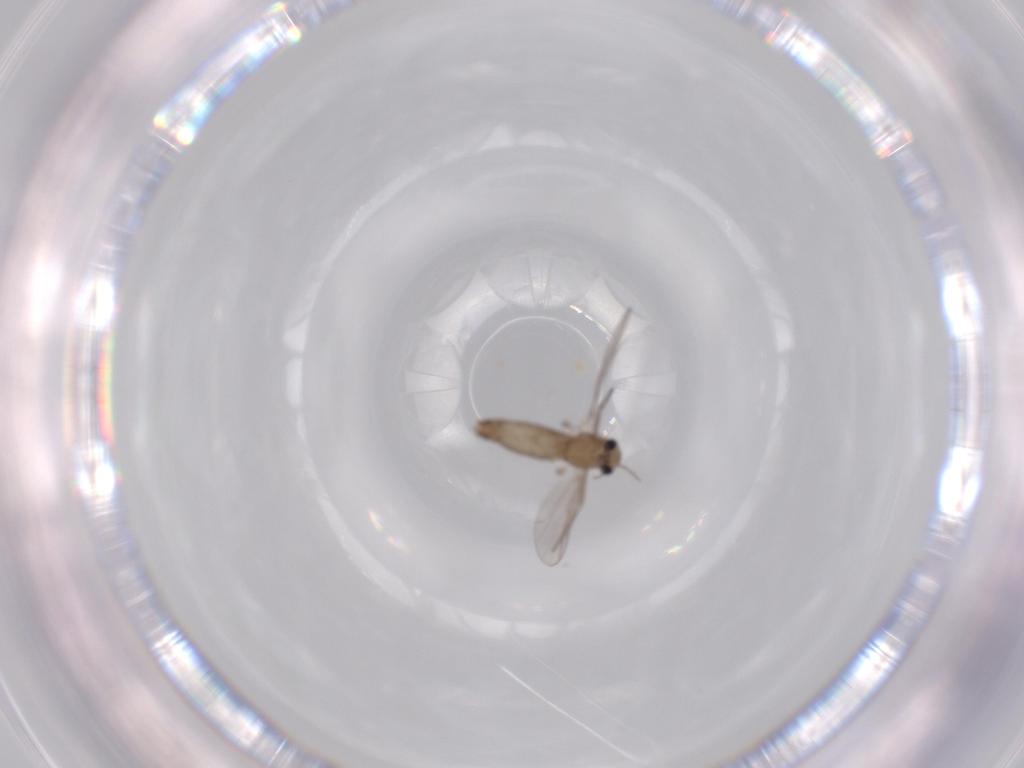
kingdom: Animalia
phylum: Arthropoda
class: Insecta
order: Diptera
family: Chironomidae
